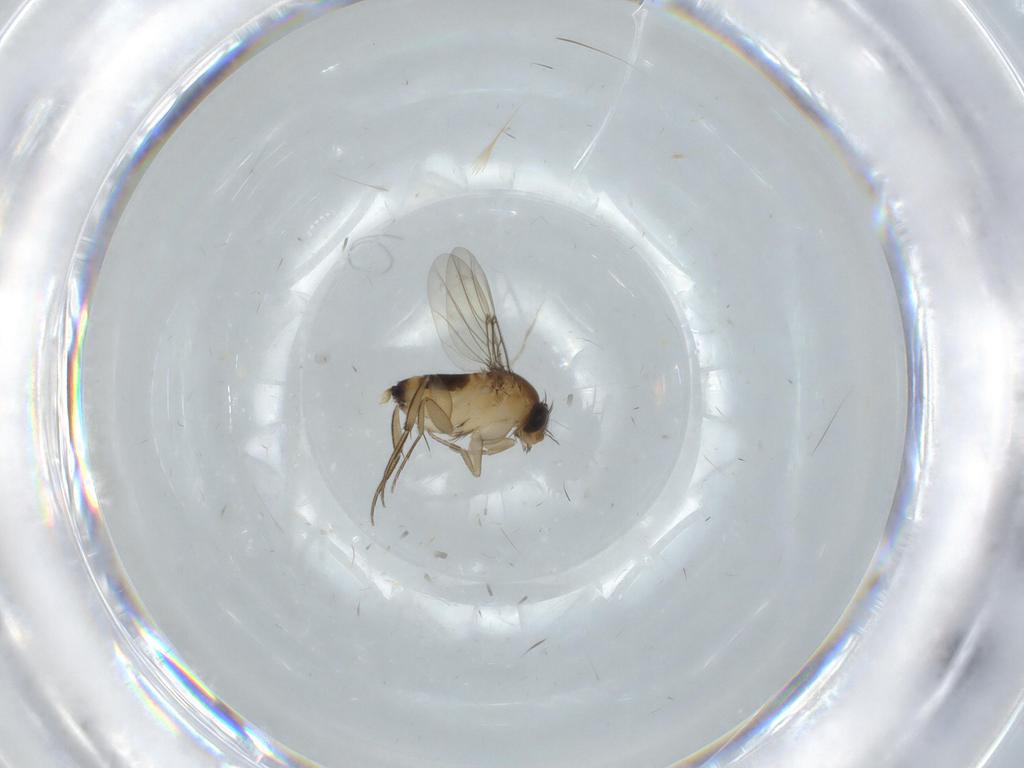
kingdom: Animalia
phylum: Arthropoda
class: Insecta
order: Diptera
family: Phoridae
